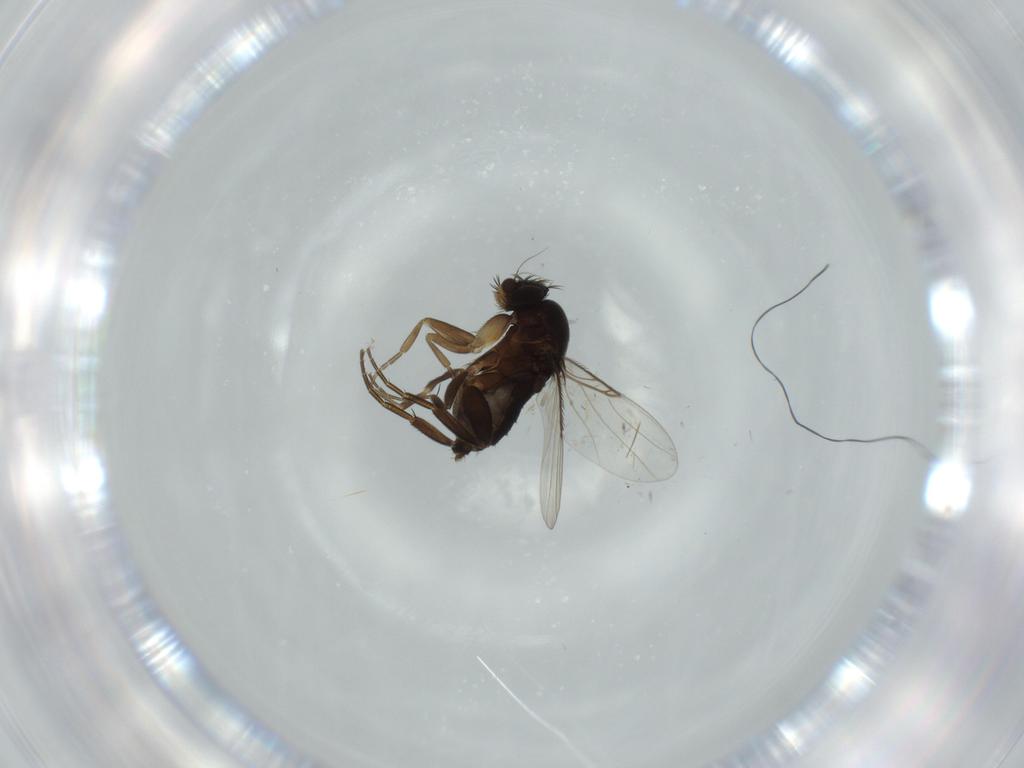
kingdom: Animalia
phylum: Arthropoda
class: Insecta
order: Diptera
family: Phoridae
